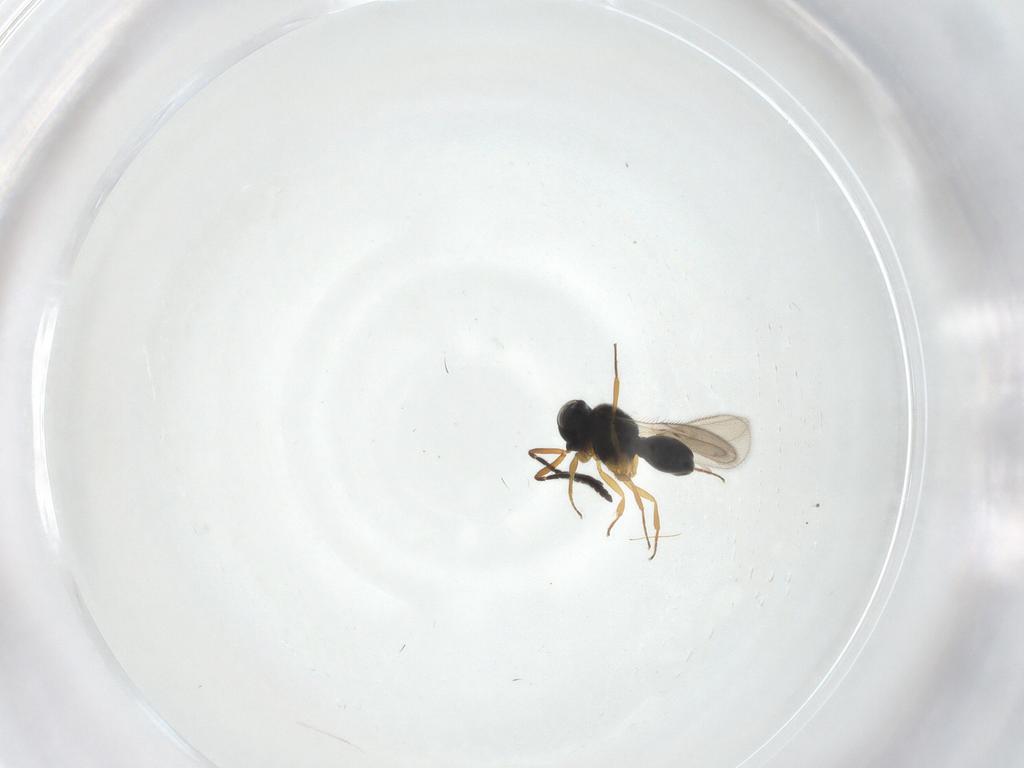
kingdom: Animalia
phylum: Arthropoda
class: Insecta
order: Hymenoptera
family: Scelionidae
